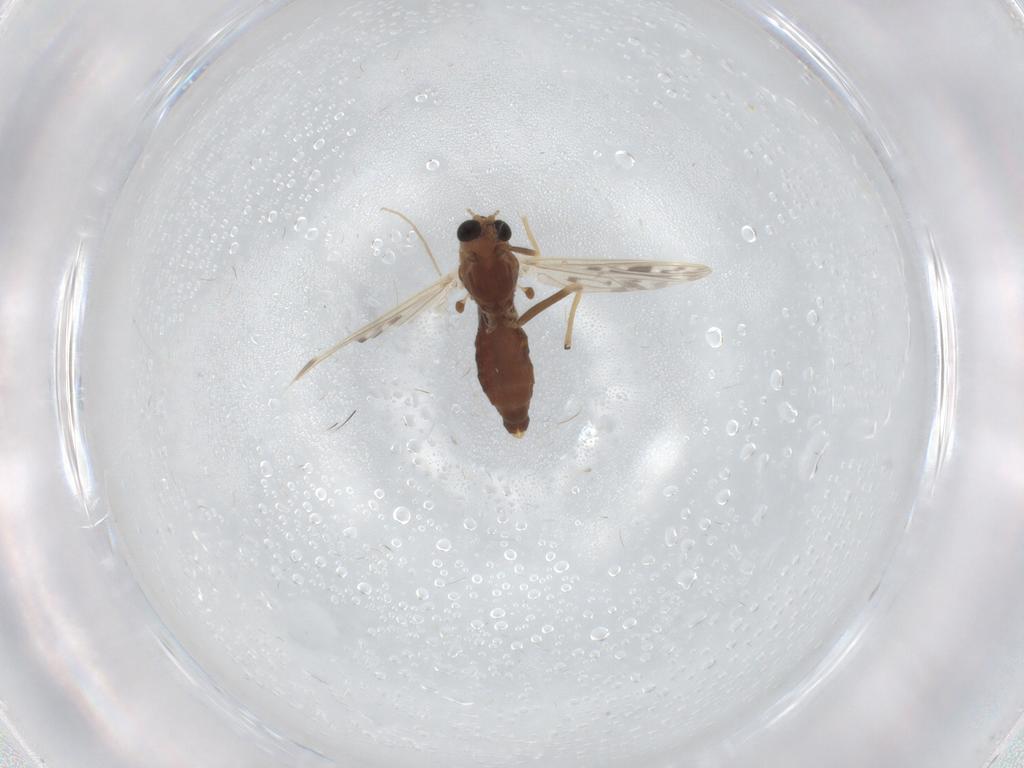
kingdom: Animalia
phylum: Arthropoda
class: Insecta
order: Diptera
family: Chironomidae
